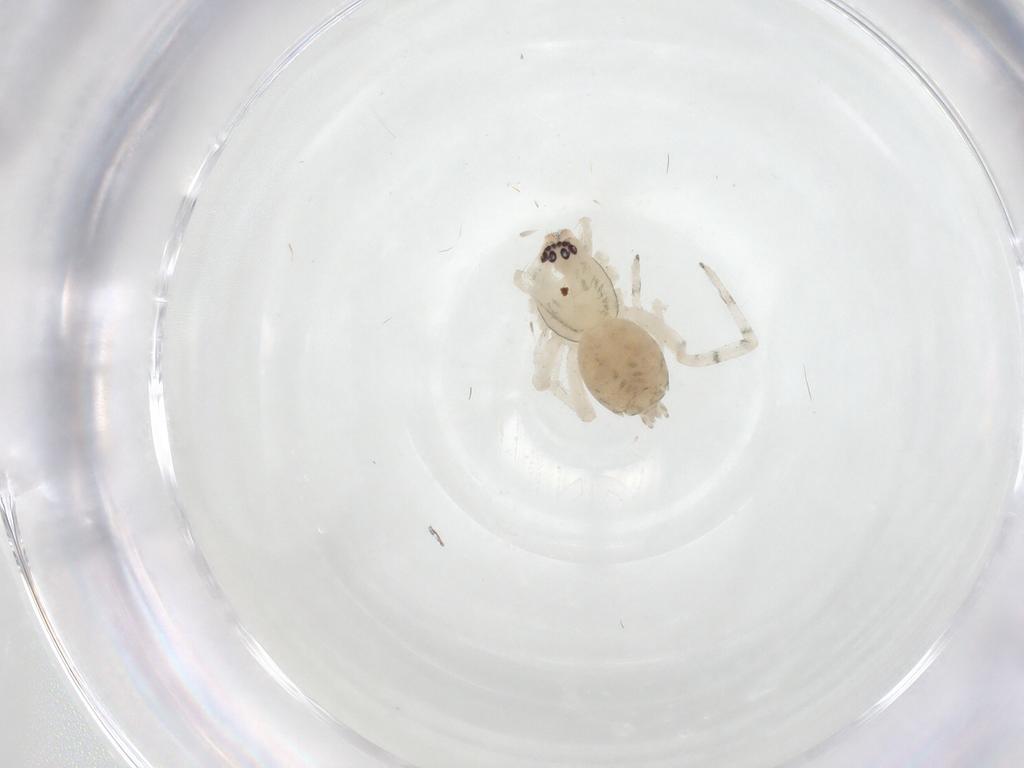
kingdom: Animalia
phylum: Arthropoda
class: Arachnida
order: Araneae
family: Anyphaenidae
